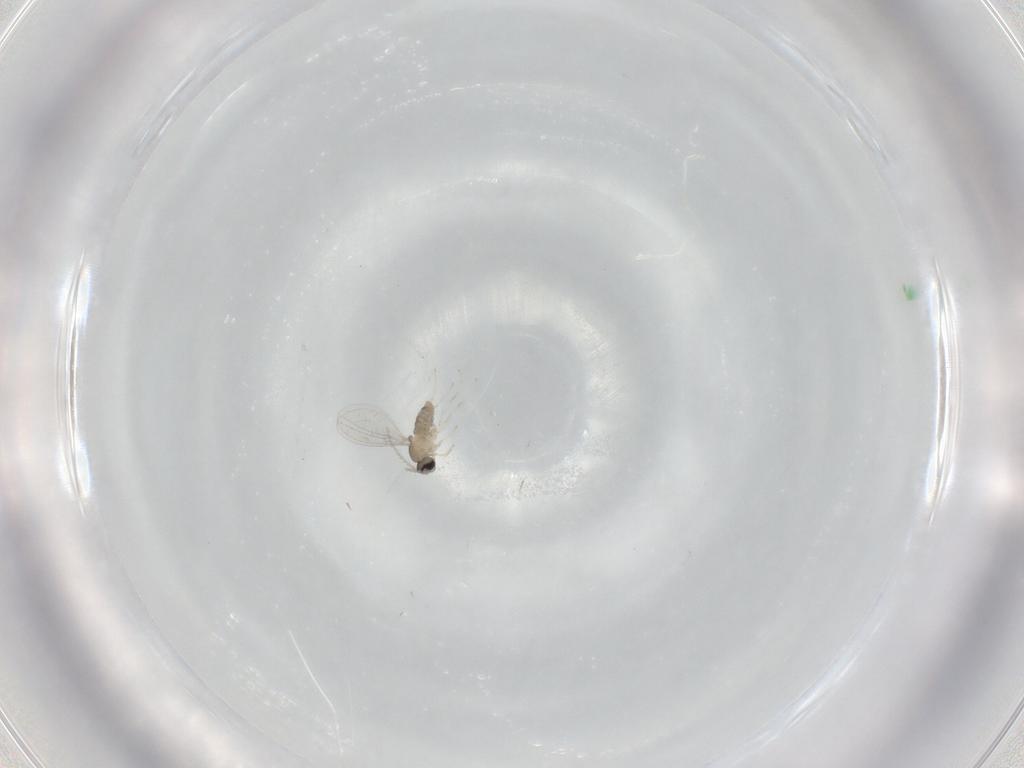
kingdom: Animalia
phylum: Arthropoda
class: Insecta
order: Diptera
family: Cecidomyiidae
